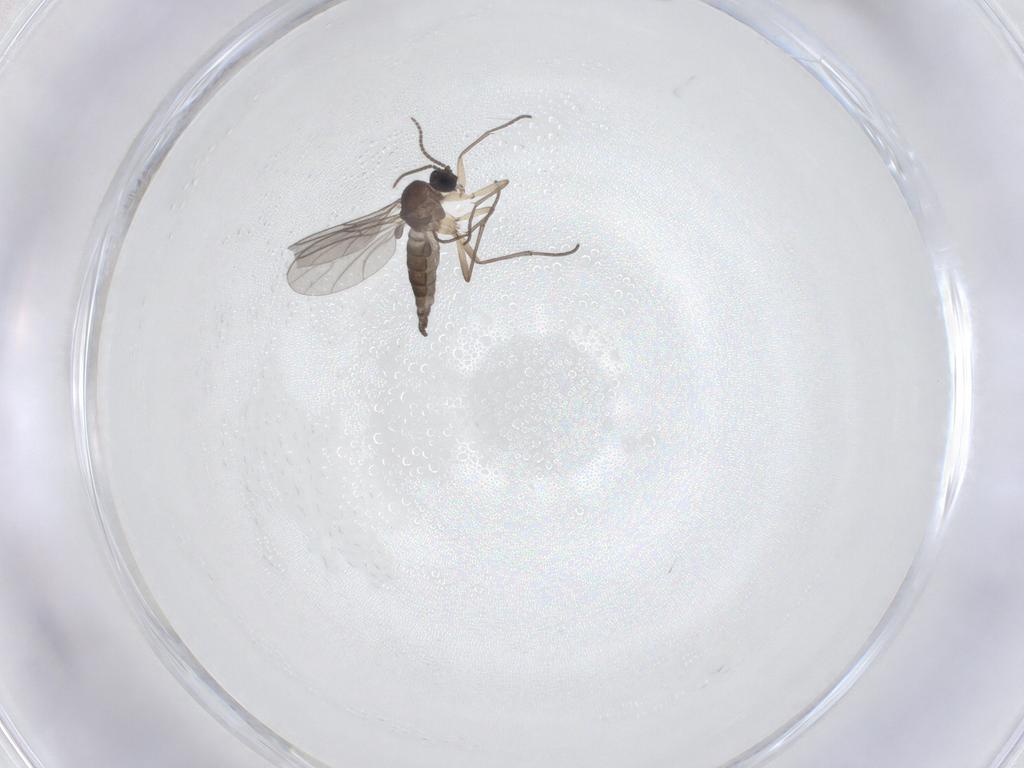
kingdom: Animalia
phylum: Arthropoda
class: Insecta
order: Diptera
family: Sciaridae
